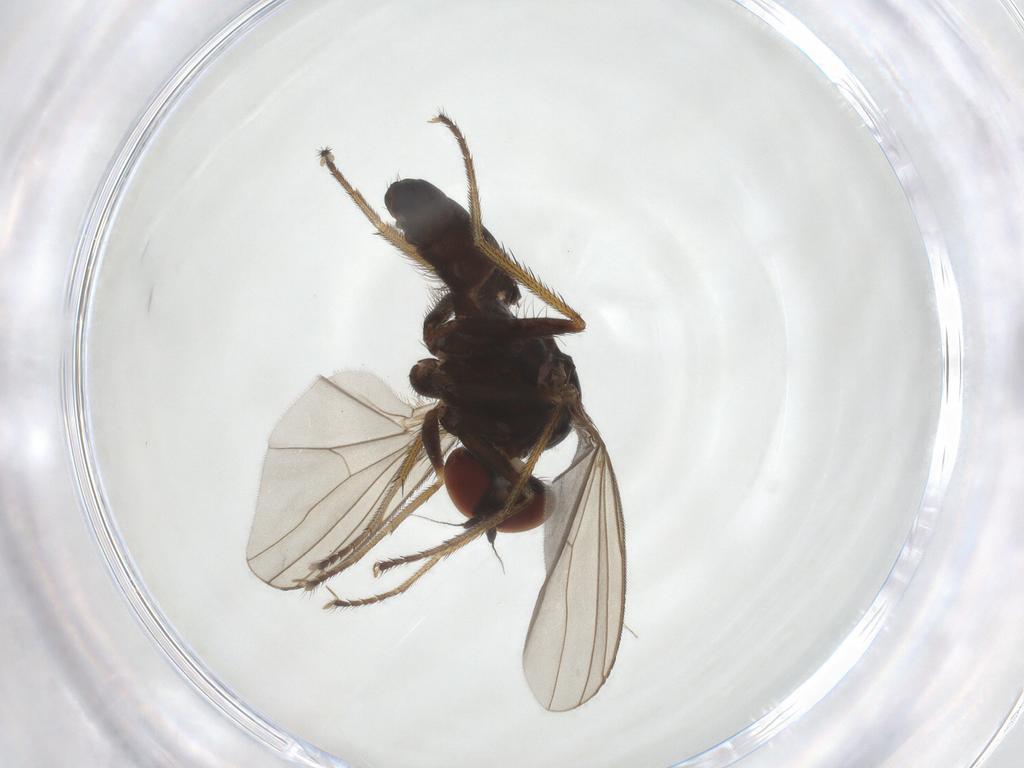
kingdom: Animalia
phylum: Arthropoda
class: Insecta
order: Diptera
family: Dolichopodidae
